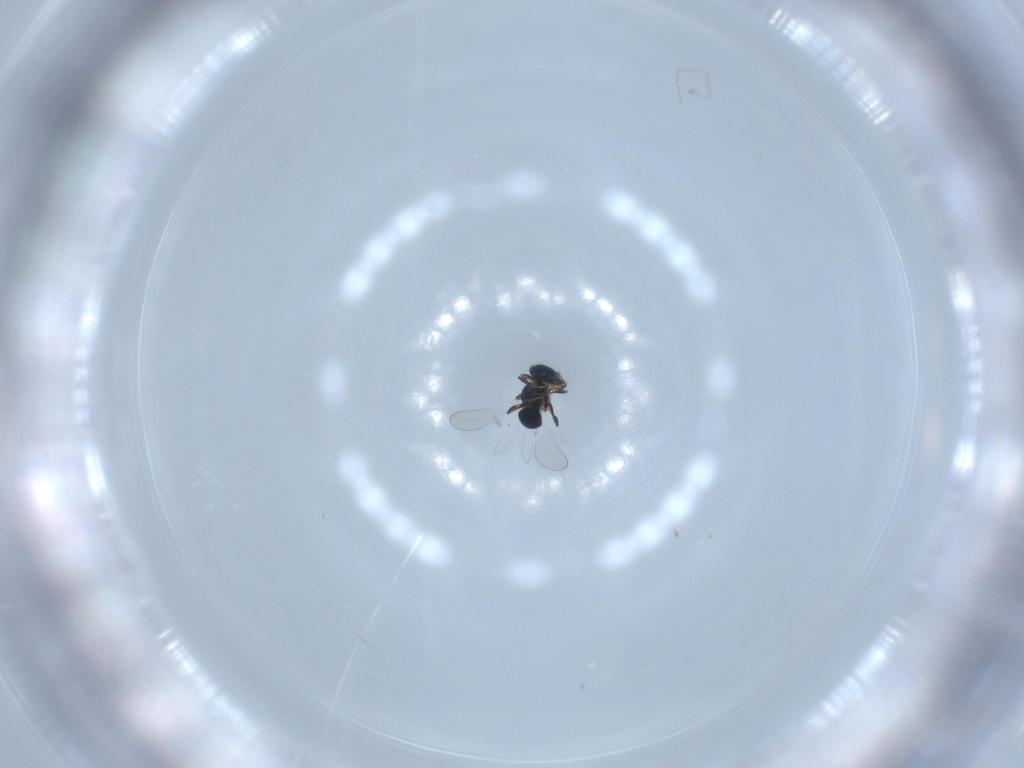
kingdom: Animalia
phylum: Arthropoda
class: Insecta
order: Hymenoptera
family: Platygastridae
